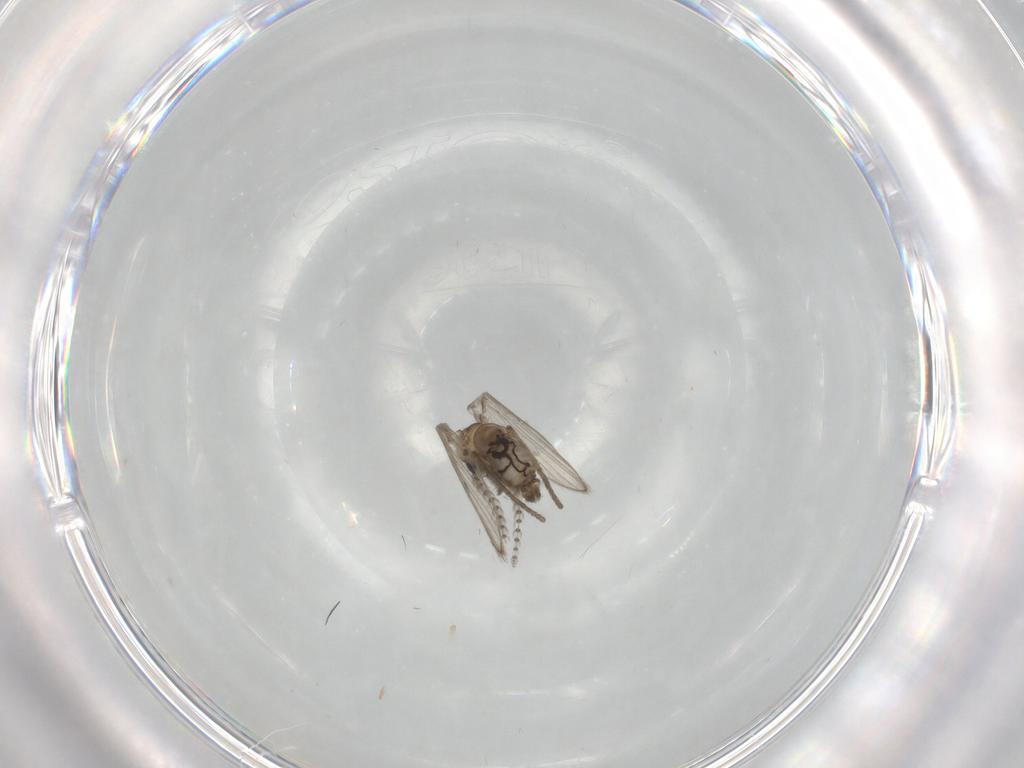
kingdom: Animalia
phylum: Arthropoda
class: Insecta
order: Diptera
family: Psychodidae
